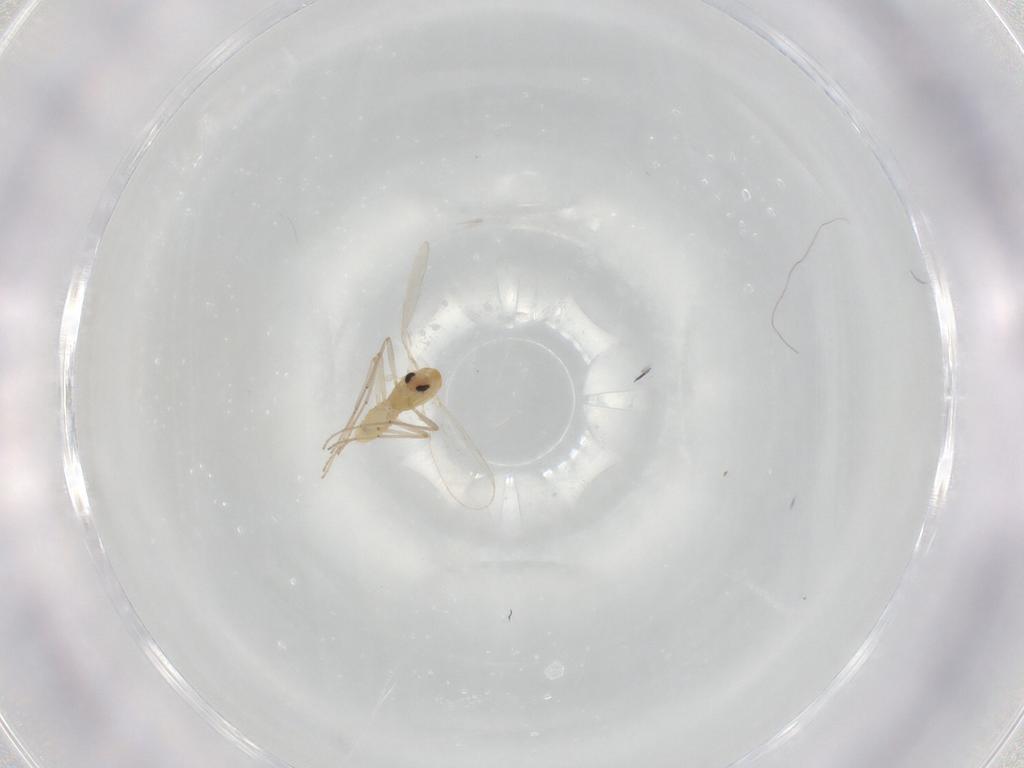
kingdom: Animalia
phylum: Arthropoda
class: Insecta
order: Diptera
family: Chironomidae
